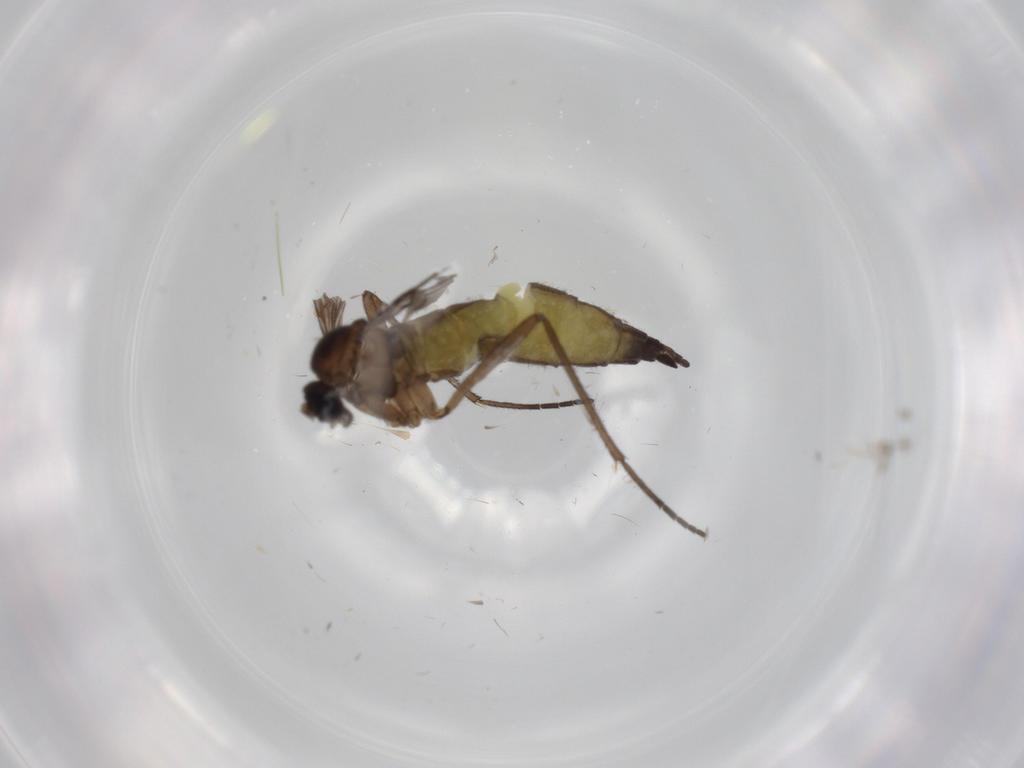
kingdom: Animalia
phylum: Arthropoda
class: Insecta
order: Diptera
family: Sciaridae
